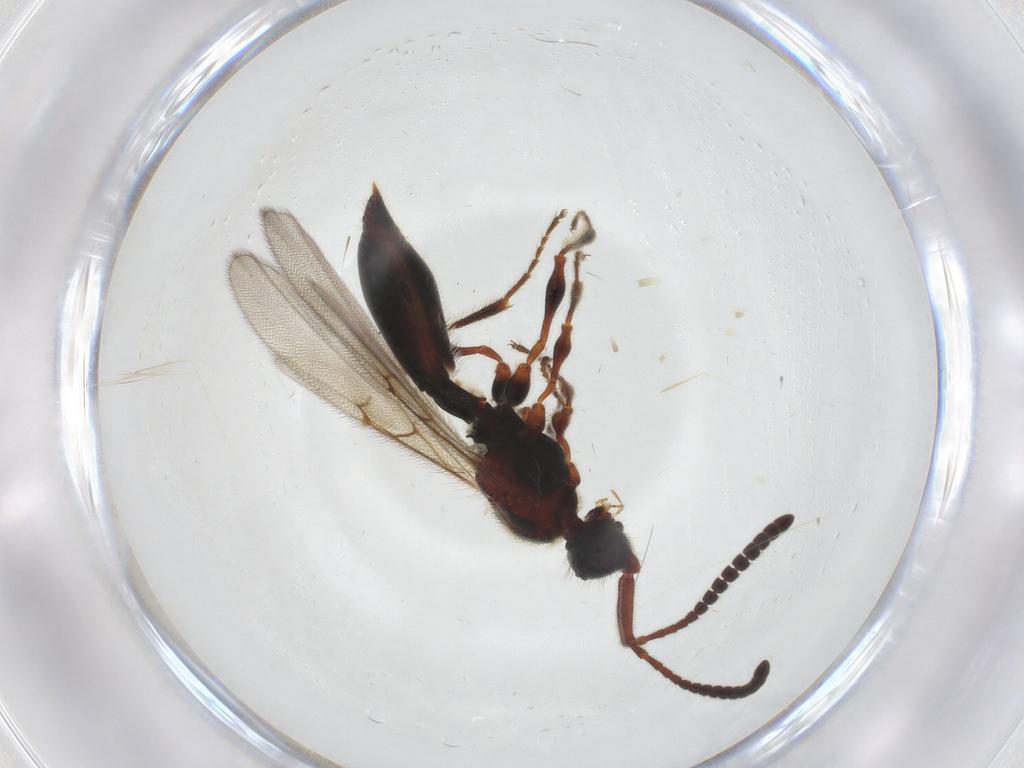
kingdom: Animalia
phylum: Arthropoda
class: Insecta
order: Hymenoptera
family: Diapriidae
